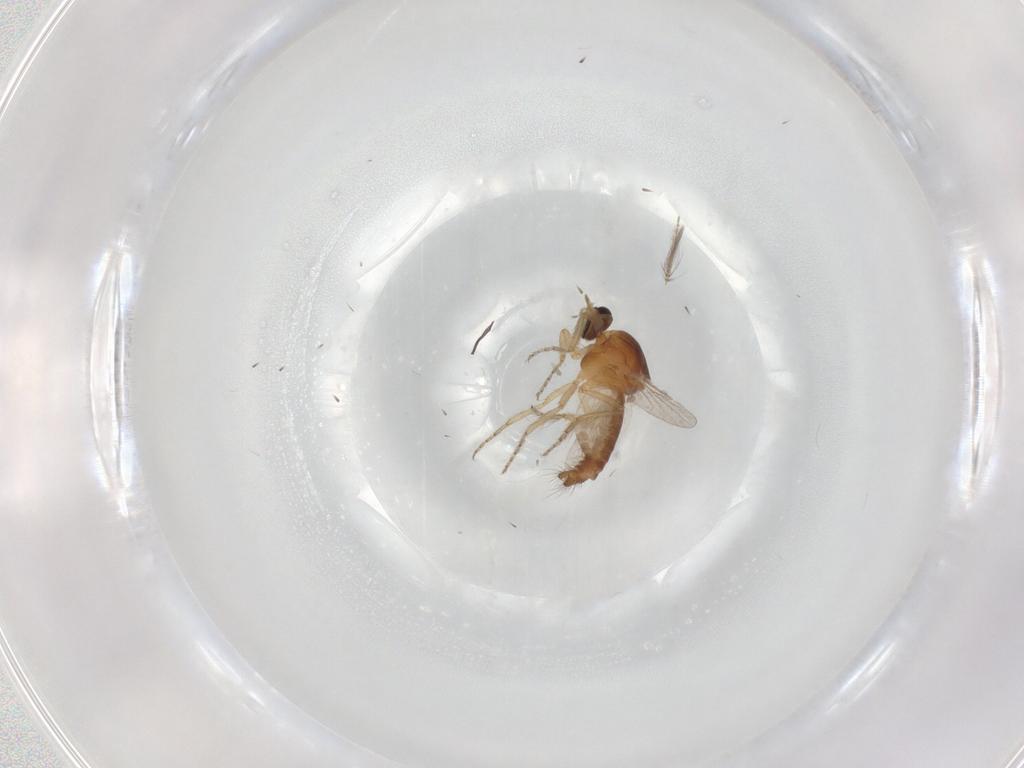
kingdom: Animalia
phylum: Arthropoda
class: Insecta
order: Diptera
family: Ceratopogonidae
